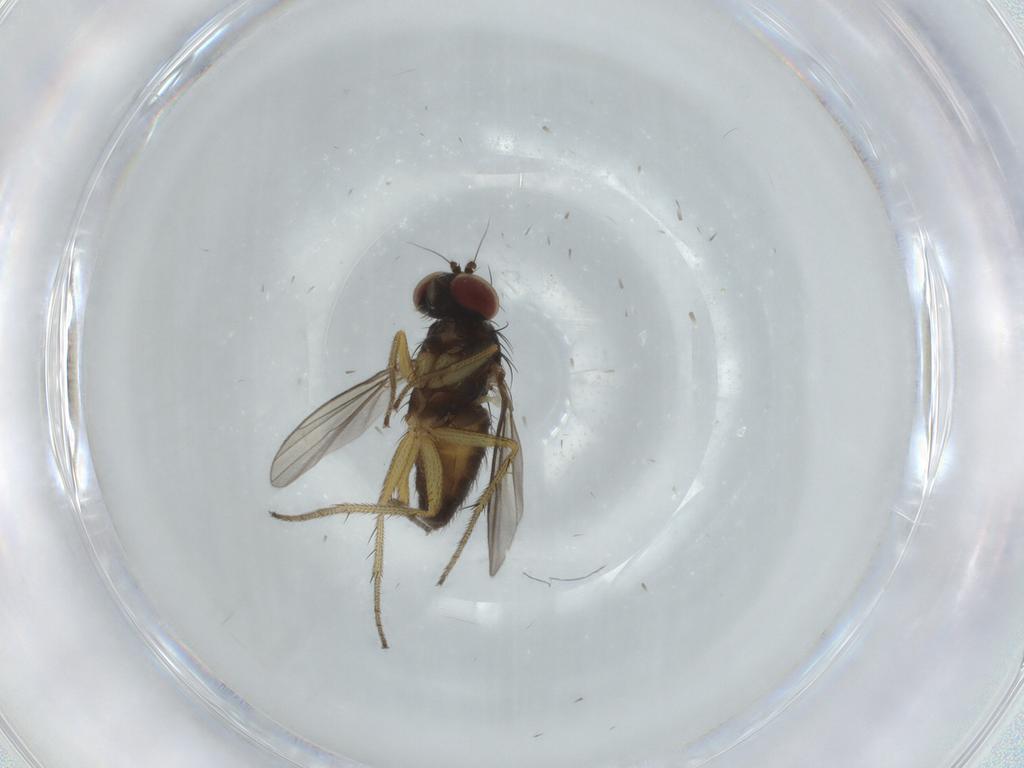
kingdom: Animalia
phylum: Arthropoda
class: Insecta
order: Diptera
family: Dolichopodidae
